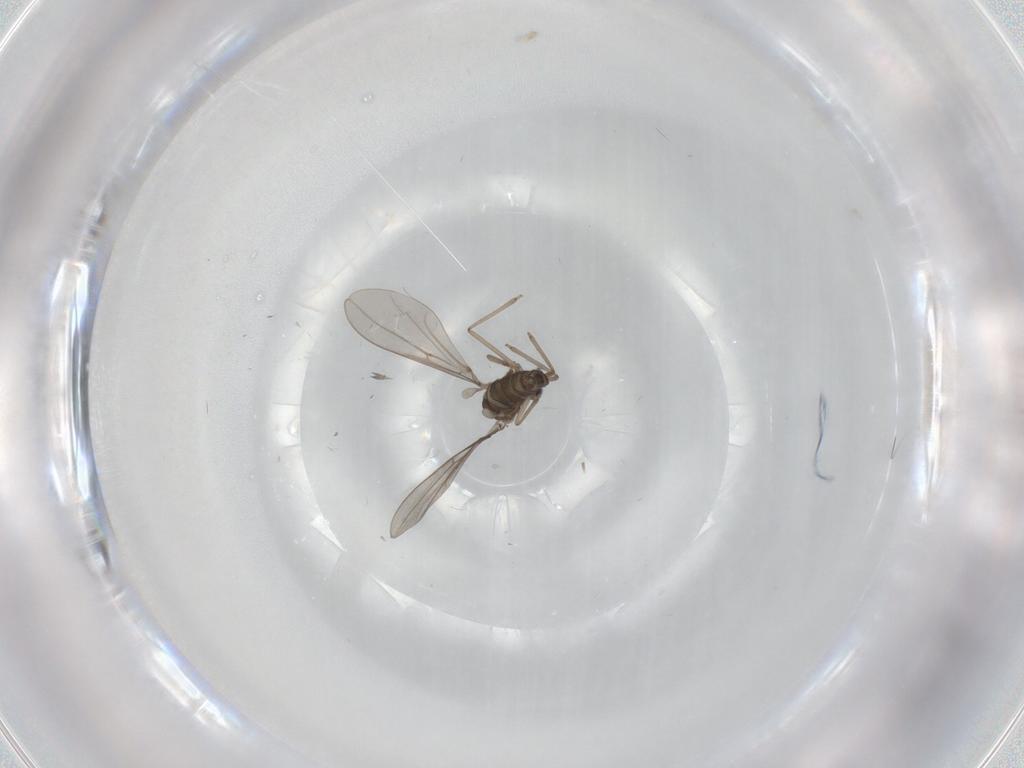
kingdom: Animalia
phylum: Arthropoda
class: Insecta
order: Diptera
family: Cecidomyiidae
